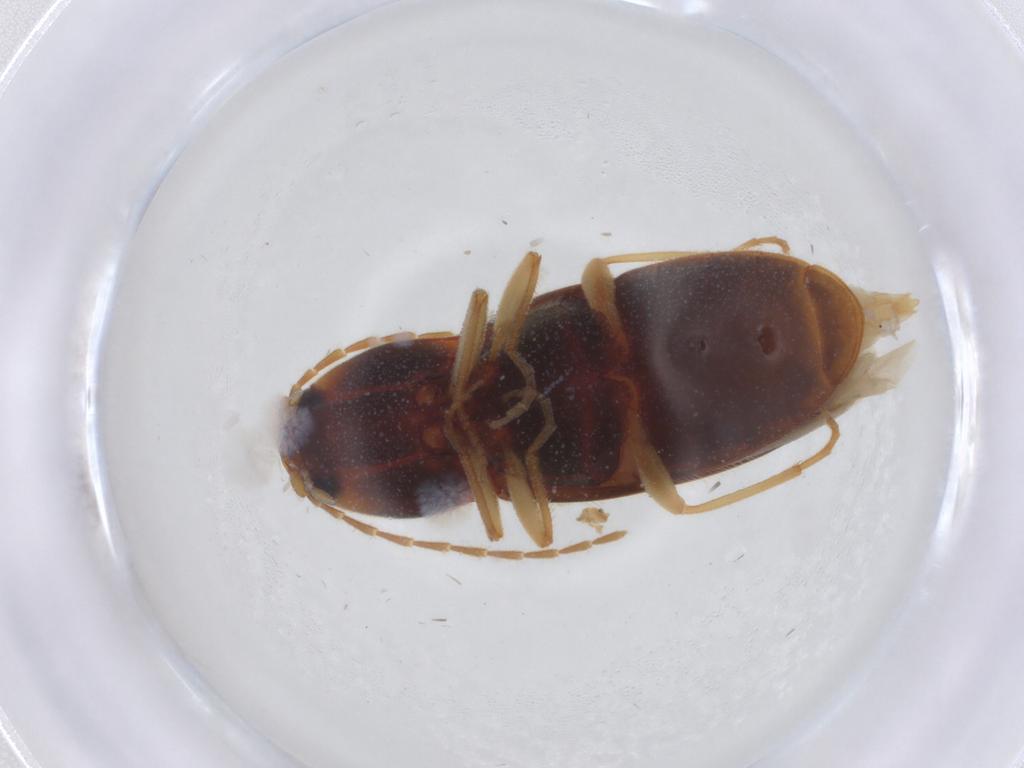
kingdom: Animalia
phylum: Arthropoda
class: Insecta
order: Coleoptera
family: Elateridae
